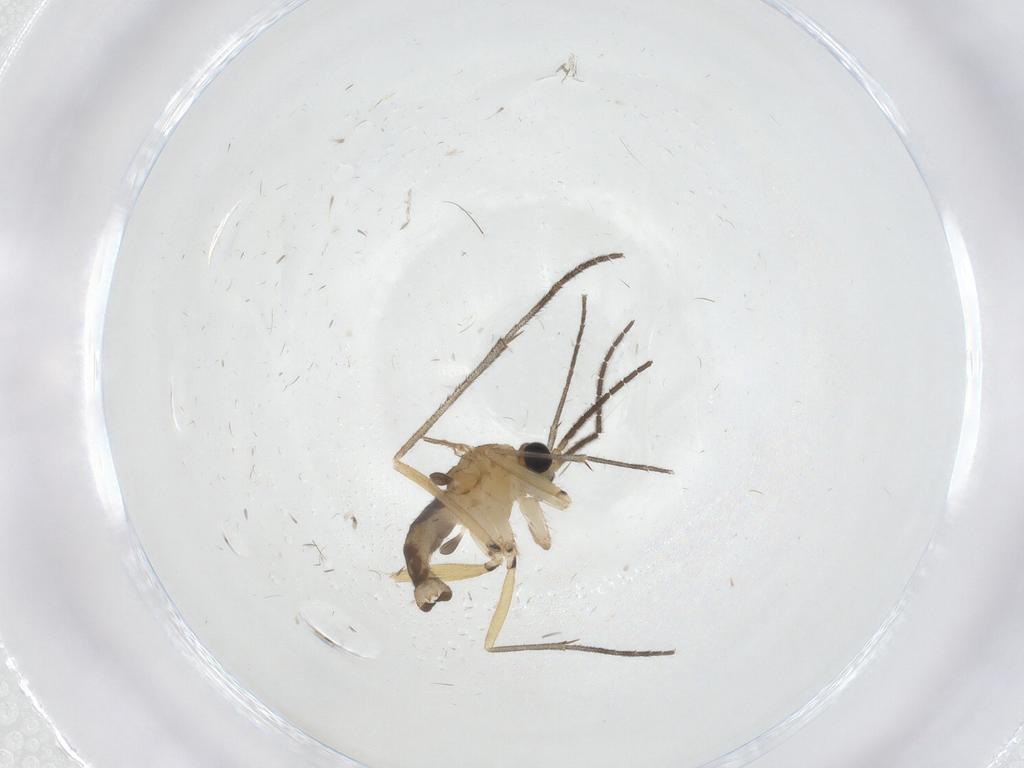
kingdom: Animalia
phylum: Arthropoda
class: Insecta
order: Diptera
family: Sciaridae
